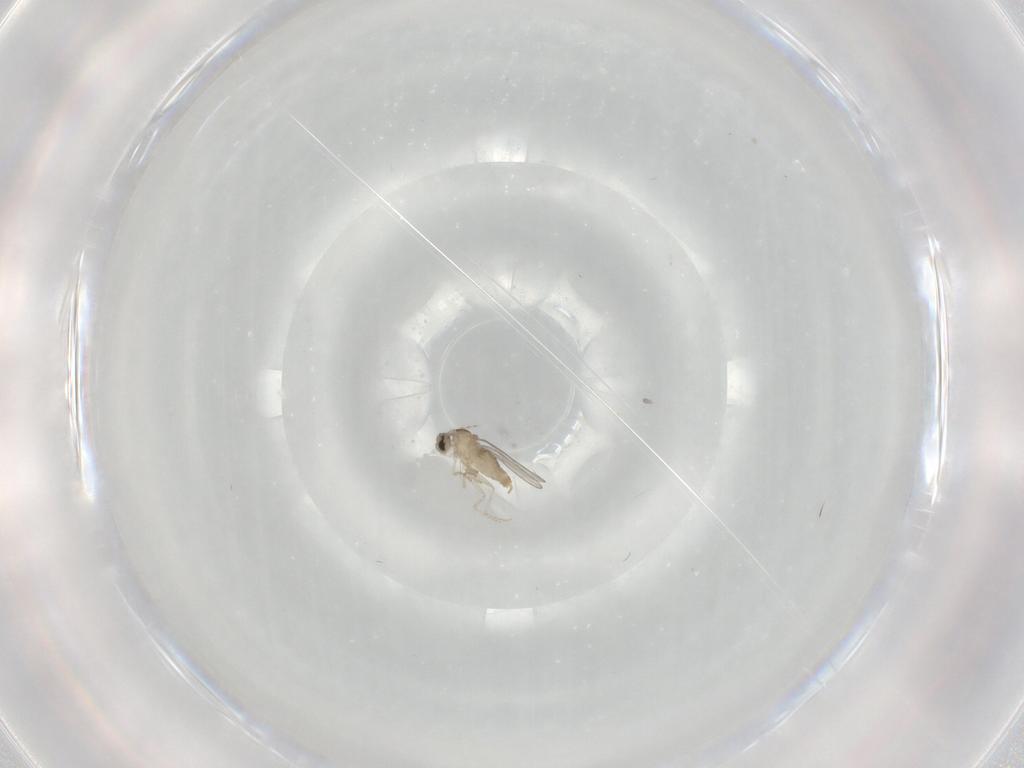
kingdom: Animalia
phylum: Arthropoda
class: Insecta
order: Diptera
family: Cecidomyiidae
